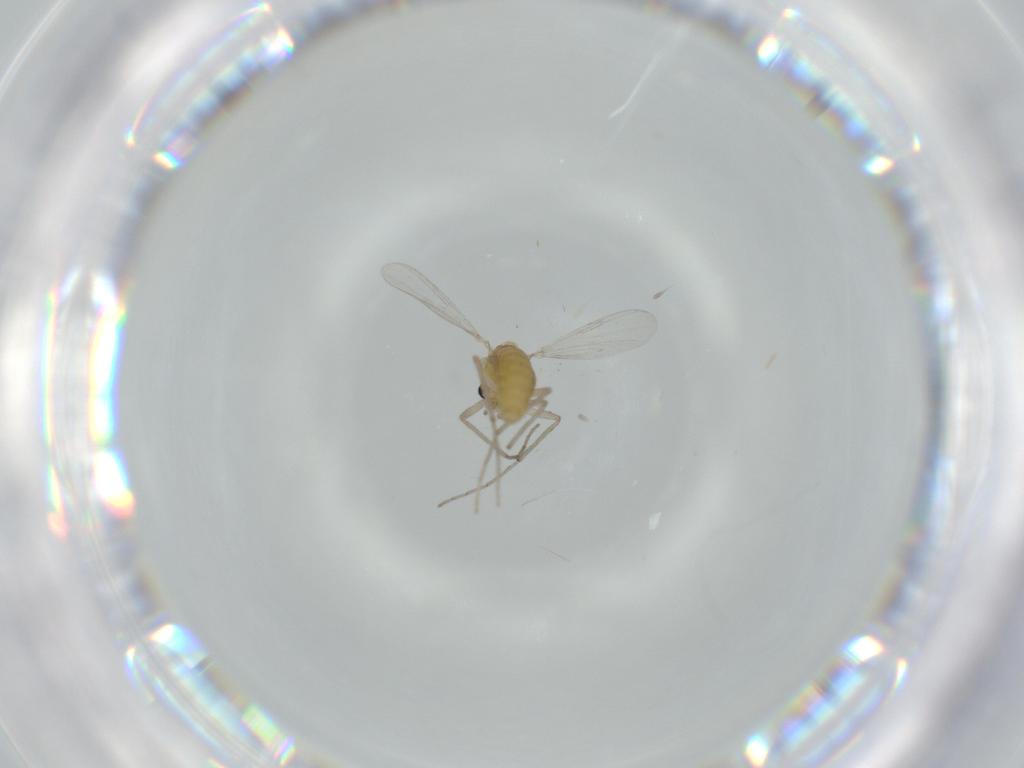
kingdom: Animalia
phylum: Arthropoda
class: Insecta
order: Diptera
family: Chironomidae
